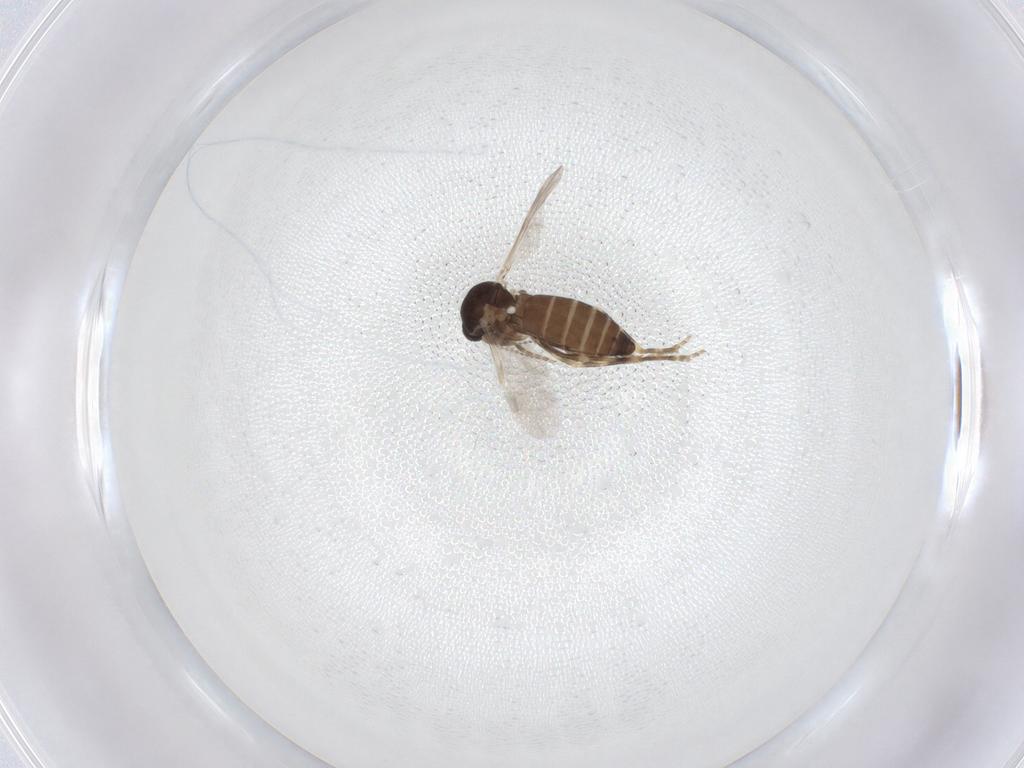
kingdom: Animalia
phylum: Arthropoda
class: Insecta
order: Diptera
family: Ceratopogonidae
